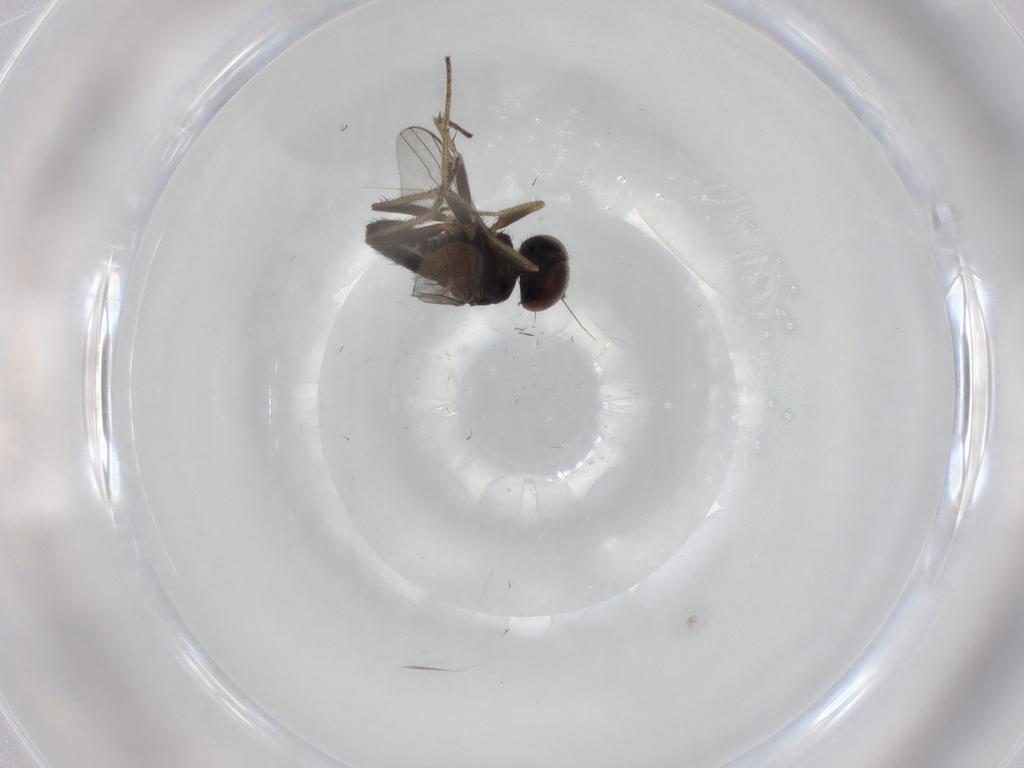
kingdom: Animalia
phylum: Arthropoda
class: Insecta
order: Diptera
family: Dolichopodidae
